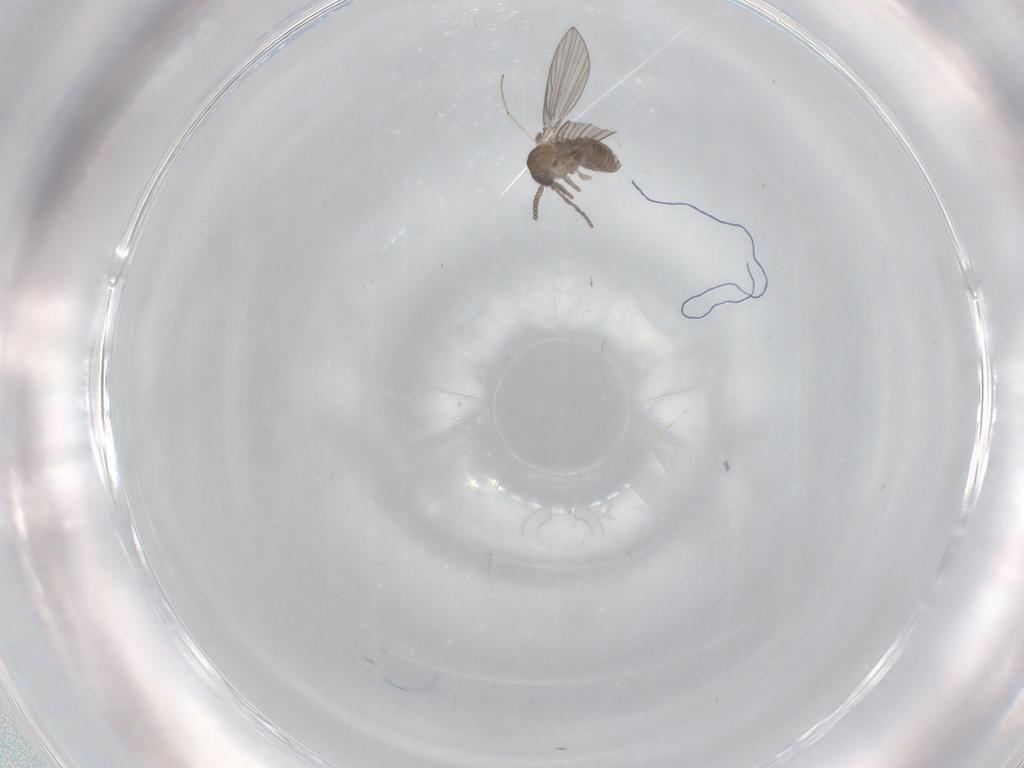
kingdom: Animalia
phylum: Arthropoda
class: Insecta
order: Diptera
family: Psychodidae
